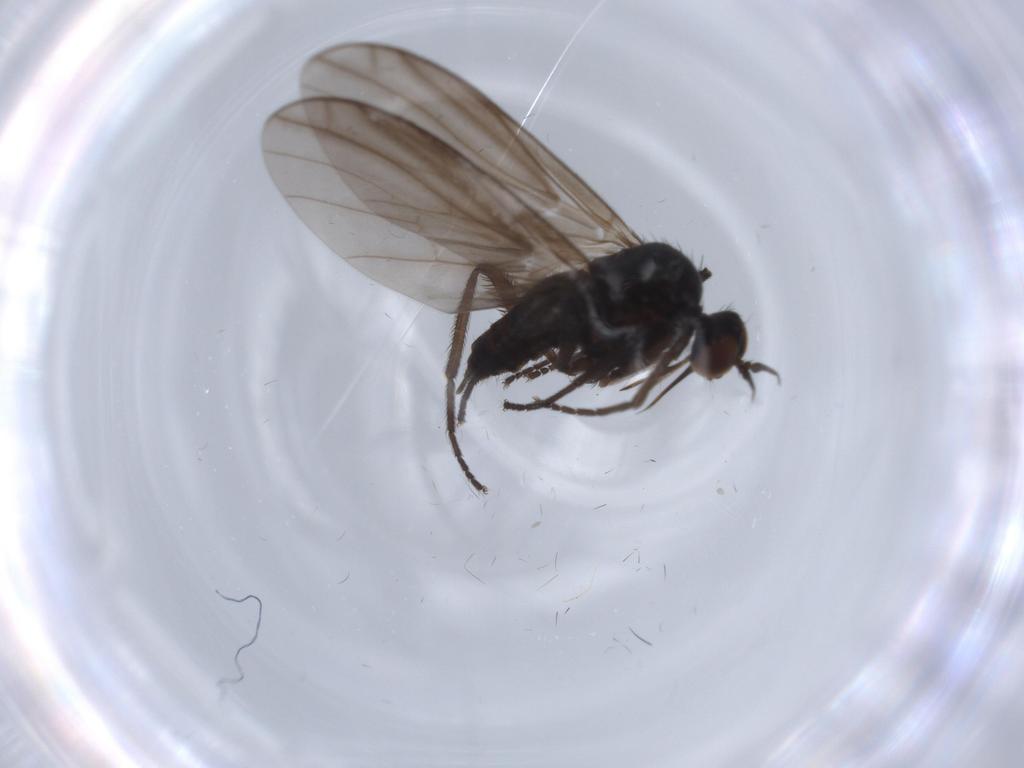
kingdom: Animalia
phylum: Arthropoda
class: Insecta
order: Diptera
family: Empididae
